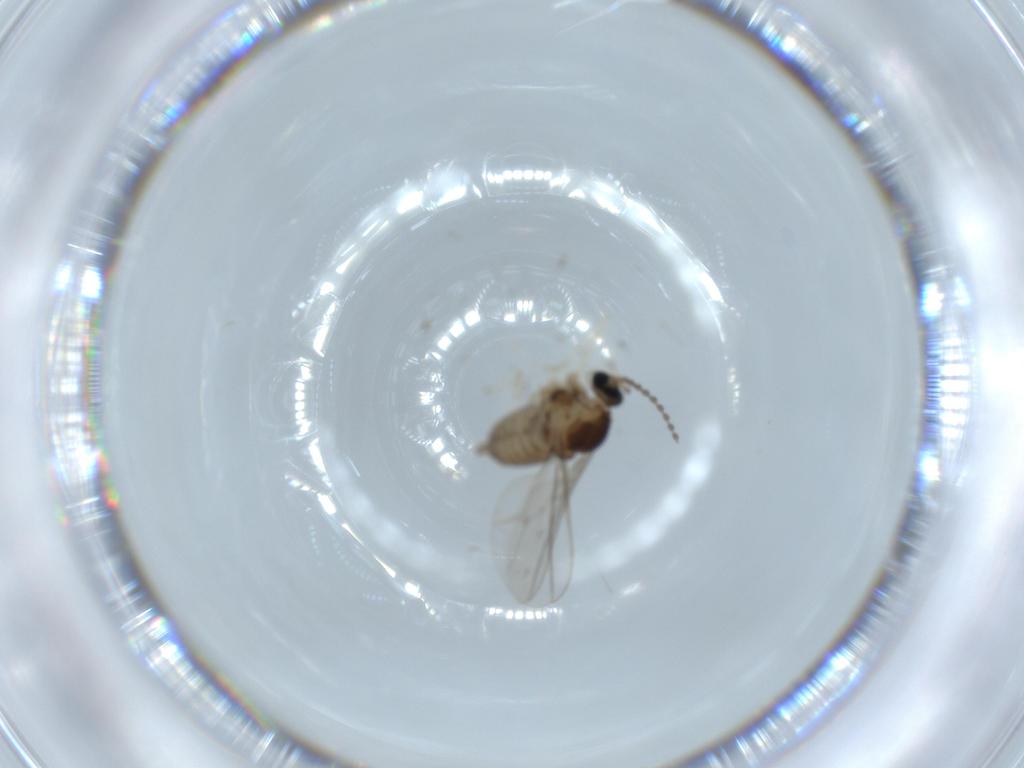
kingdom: Animalia
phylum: Arthropoda
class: Insecta
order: Diptera
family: Cecidomyiidae
